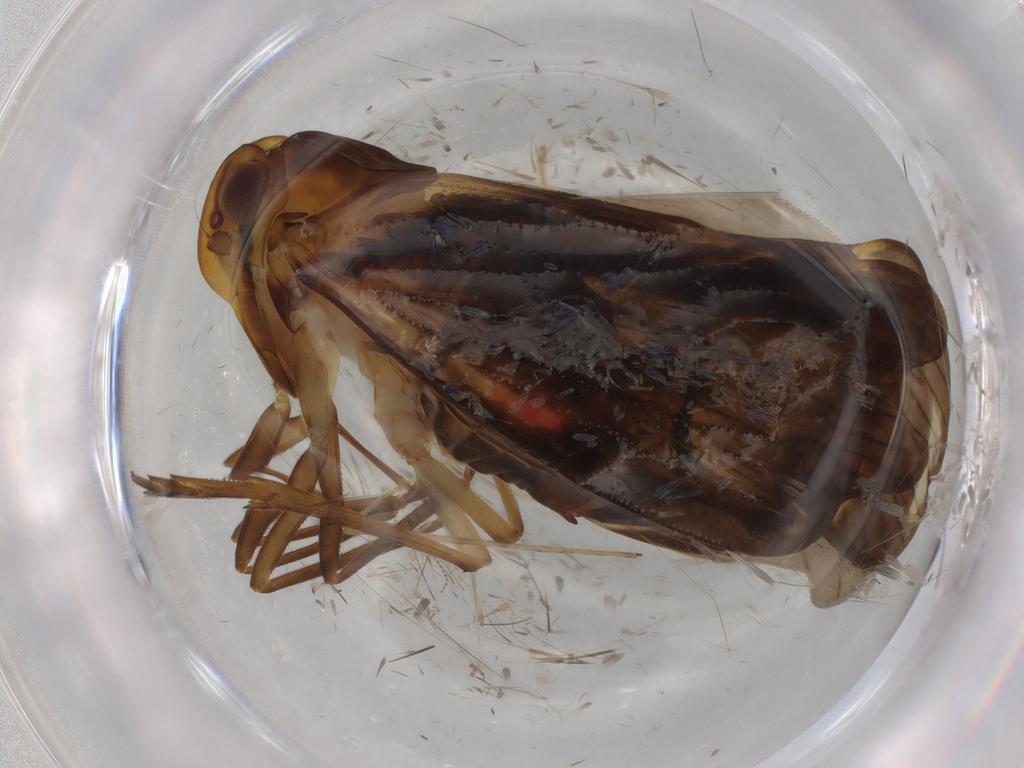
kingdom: Animalia
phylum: Arthropoda
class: Insecta
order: Hemiptera
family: Cixiidae
